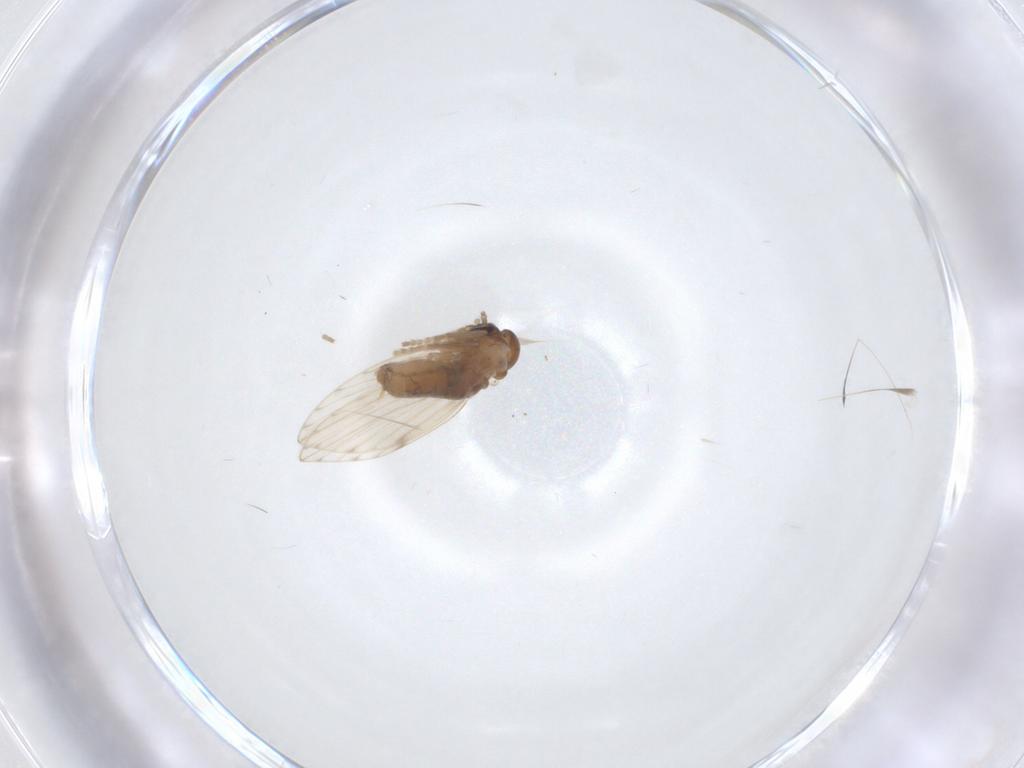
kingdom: Animalia
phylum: Arthropoda
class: Insecta
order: Diptera
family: Psychodidae
